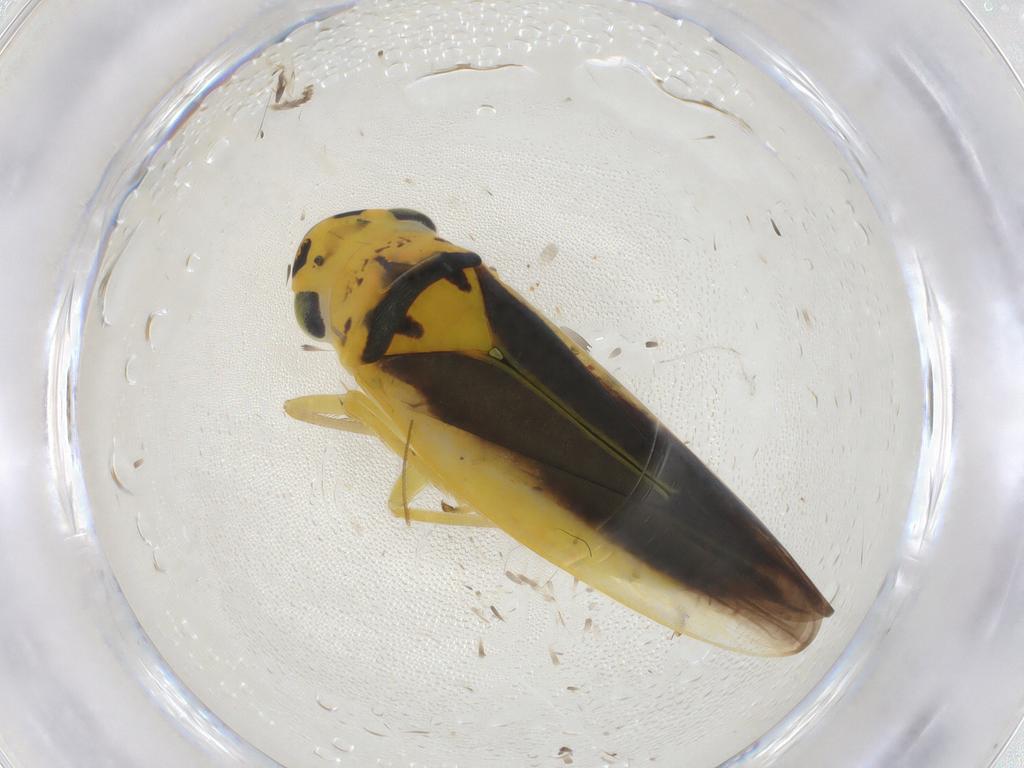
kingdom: Animalia
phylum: Arthropoda
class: Insecta
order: Hemiptera
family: Cicadellidae
